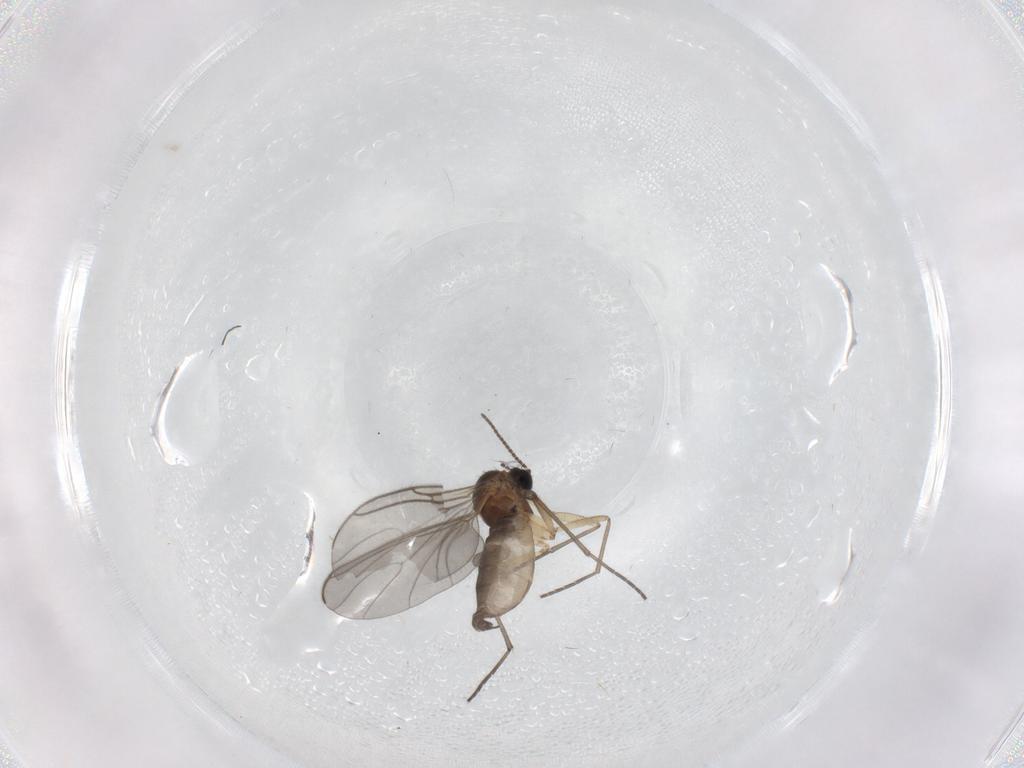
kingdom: Animalia
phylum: Arthropoda
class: Insecta
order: Diptera
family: Sciaridae
